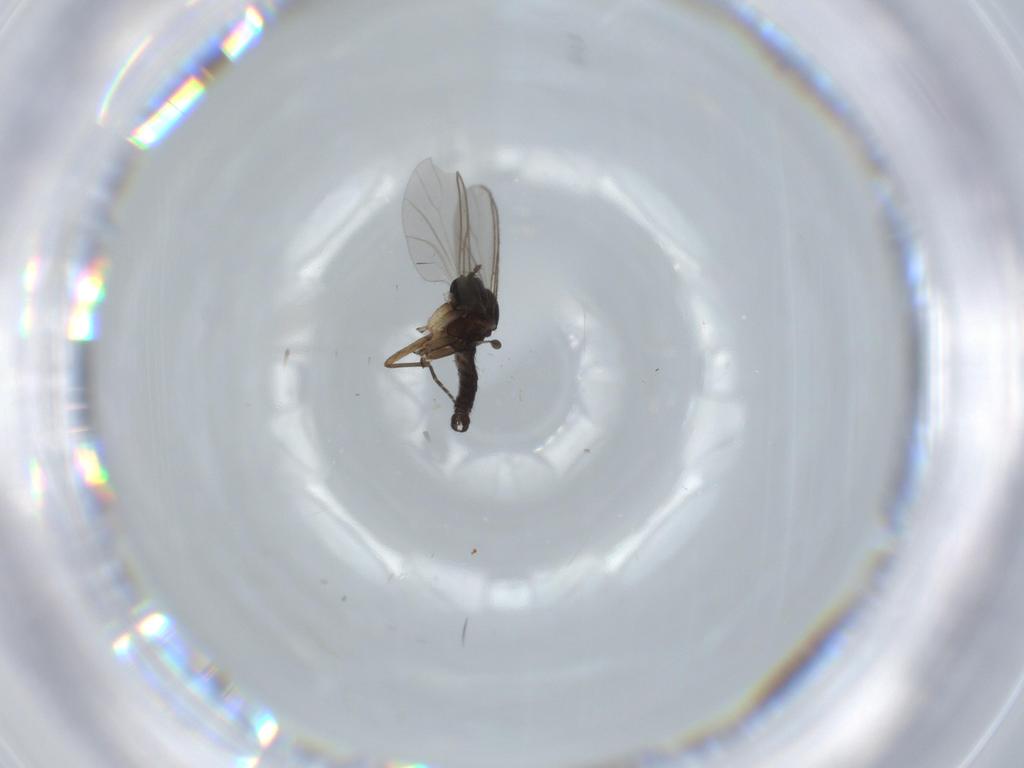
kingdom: Animalia
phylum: Arthropoda
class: Insecta
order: Diptera
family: Sciaridae
